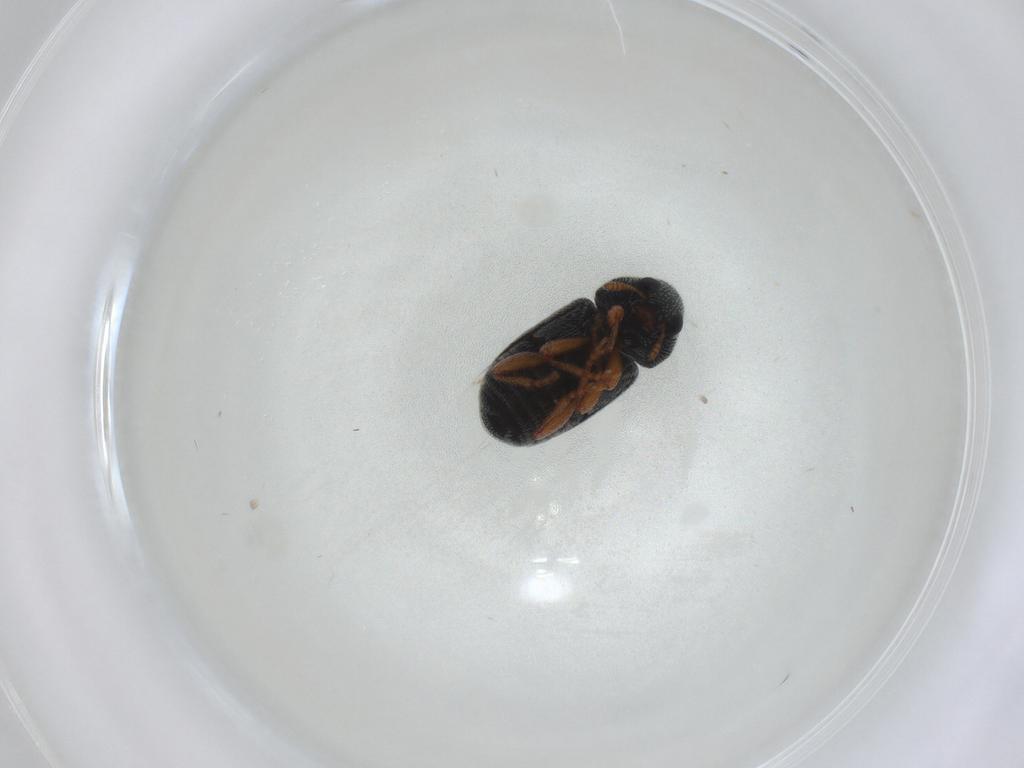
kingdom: Animalia
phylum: Arthropoda
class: Insecta
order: Coleoptera
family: Anthribidae
